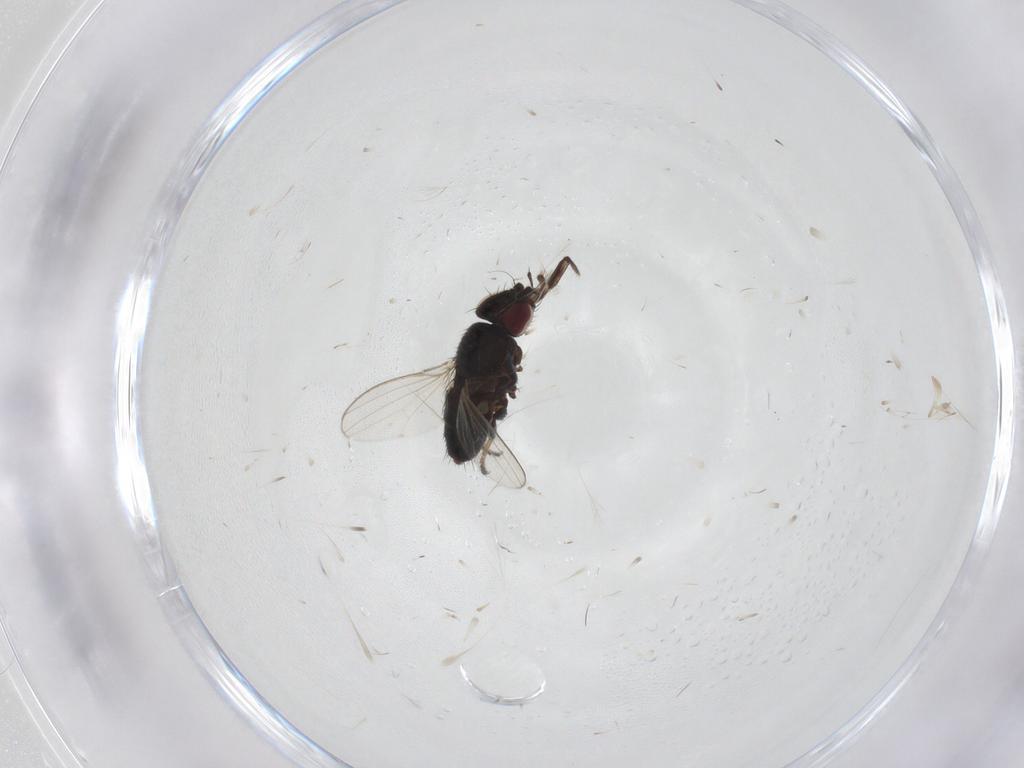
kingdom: Animalia
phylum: Arthropoda
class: Insecta
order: Diptera
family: Milichiidae
